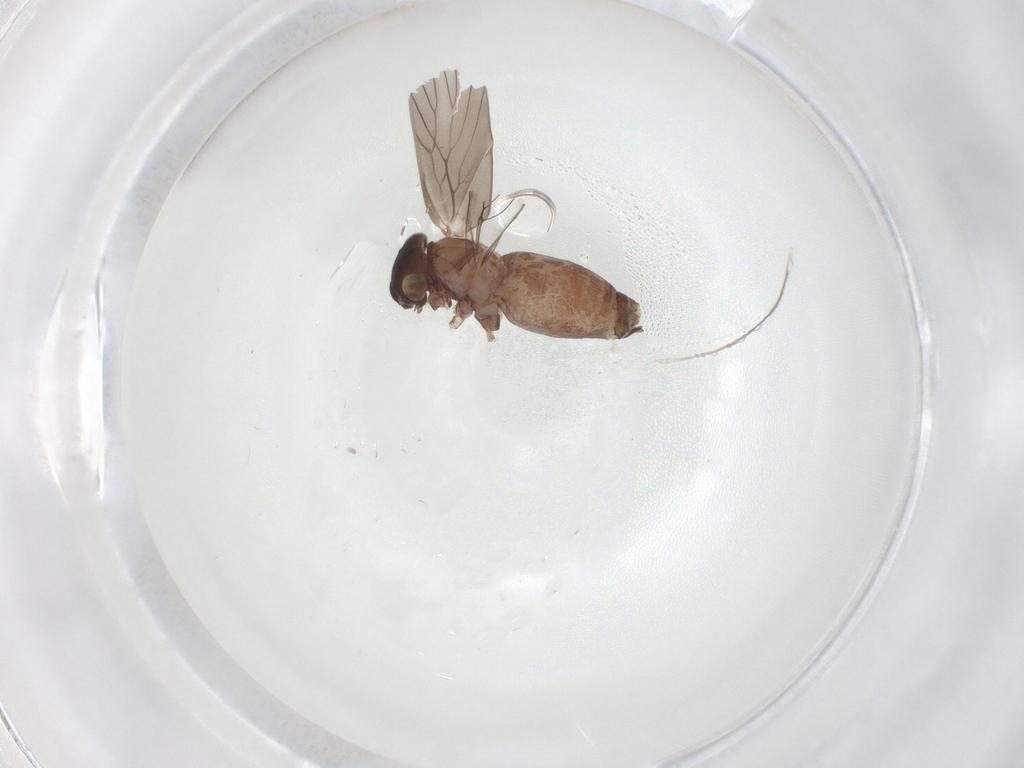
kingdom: Animalia
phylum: Arthropoda
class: Insecta
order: Psocodea
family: Lepidopsocidae
